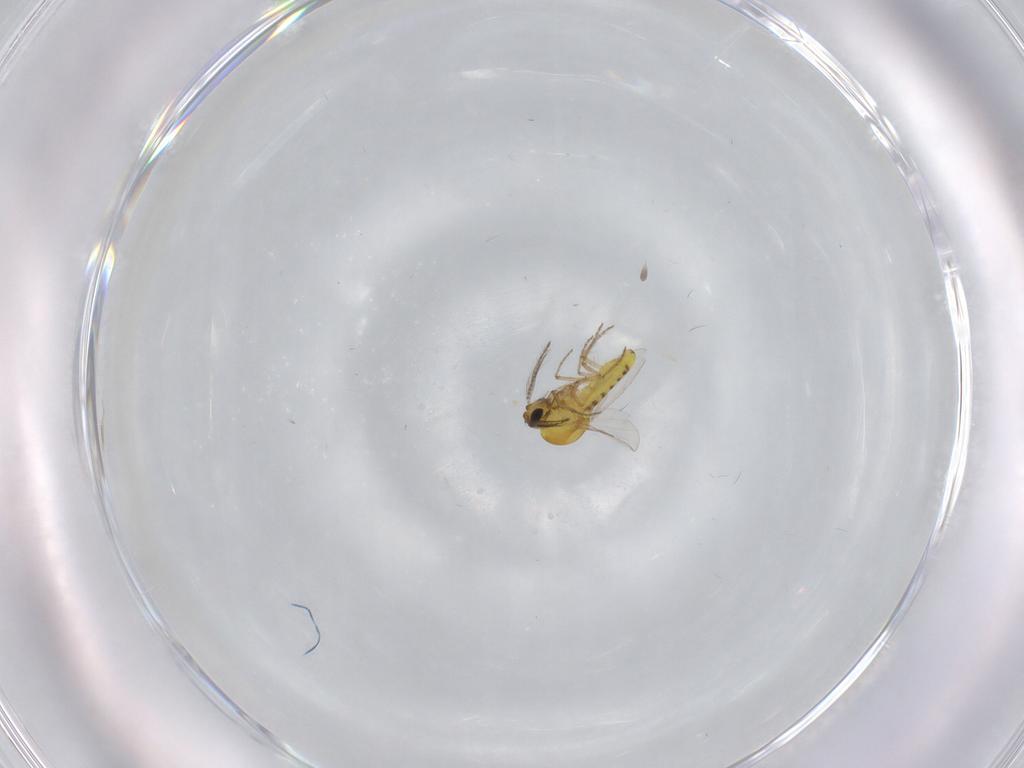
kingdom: Animalia
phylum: Arthropoda
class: Insecta
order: Diptera
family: Ceratopogonidae
